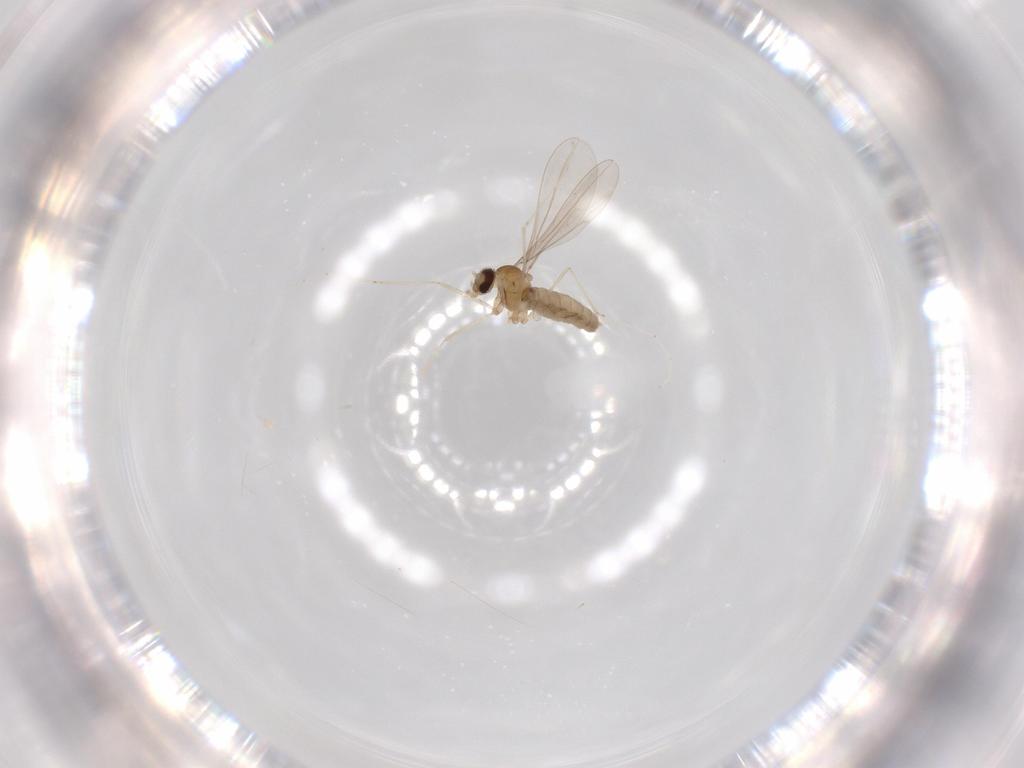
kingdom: Animalia
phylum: Arthropoda
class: Insecta
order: Diptera
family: Cecidomyiidae
